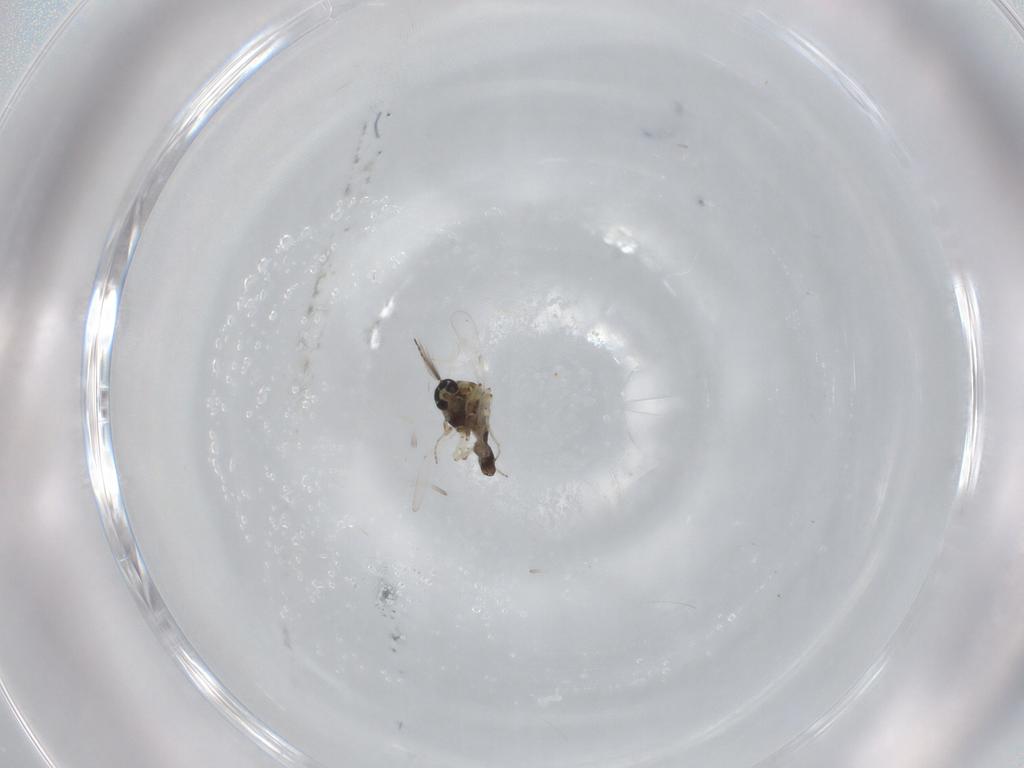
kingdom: Animalia
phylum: Arthropoda
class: Insecta
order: Diptera
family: Ceratopogonidae
